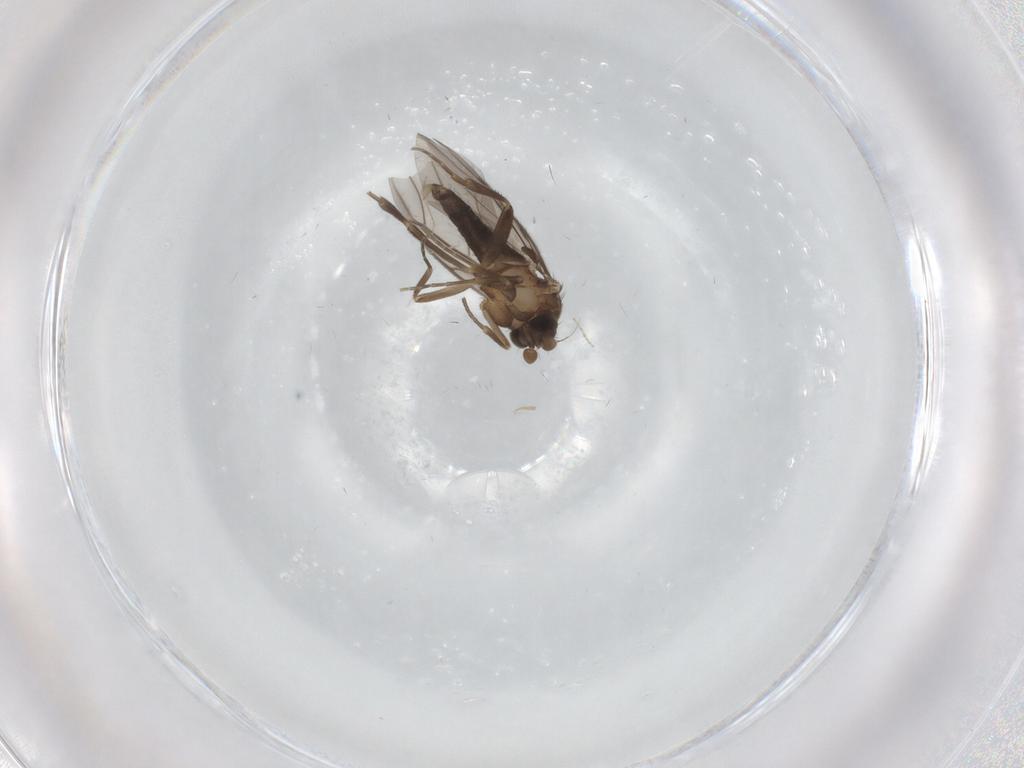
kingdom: Animalia
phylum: Arthropoda
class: Insecta
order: Diptera
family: Cecidomyiidae
